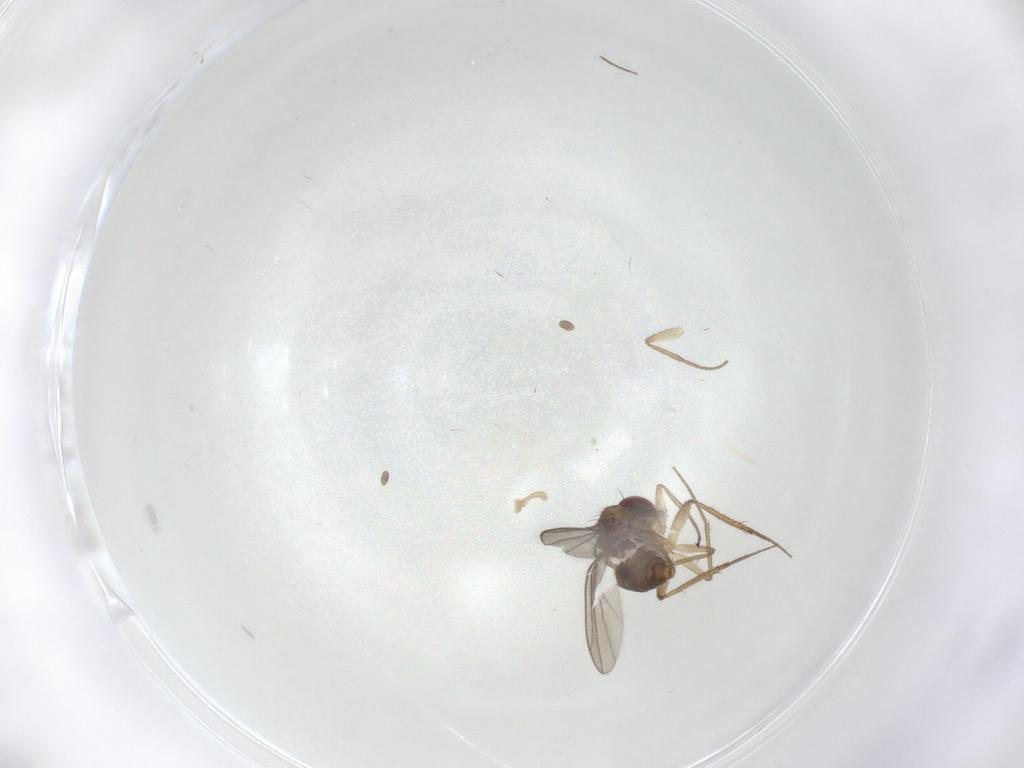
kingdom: Animalia
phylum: Arthropoda
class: Insecta
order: Diptera
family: Dolichopodidae
